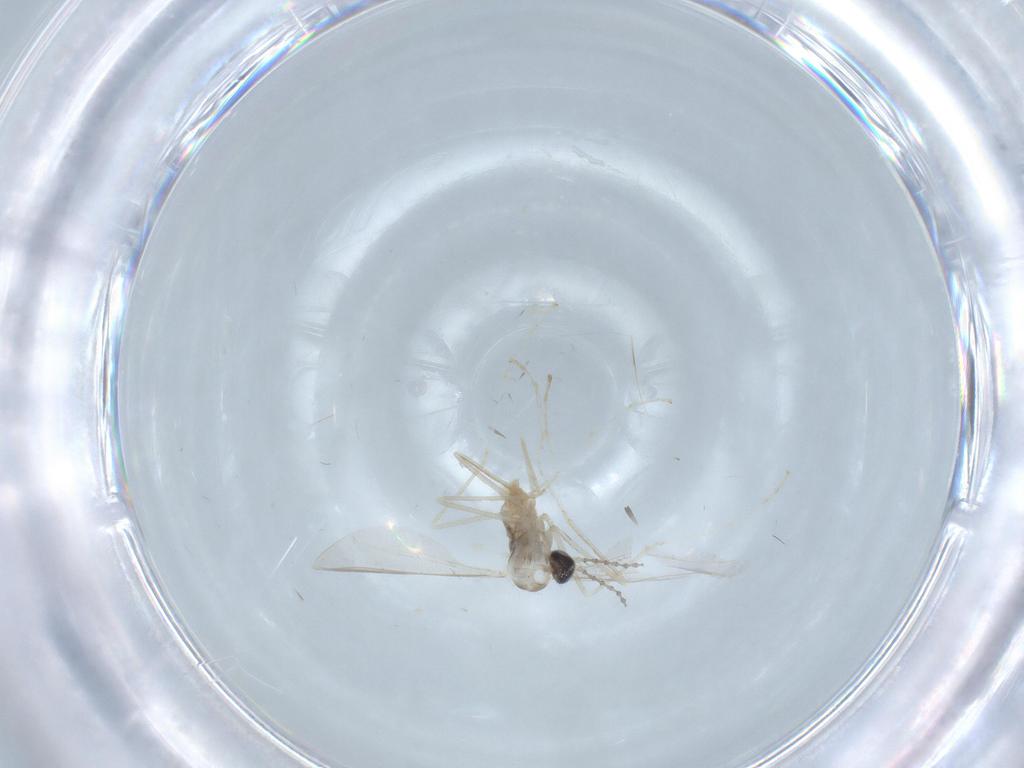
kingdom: Animalia
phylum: Arthropoda
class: Insecta
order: Diptera
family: Cecidomyiidae
